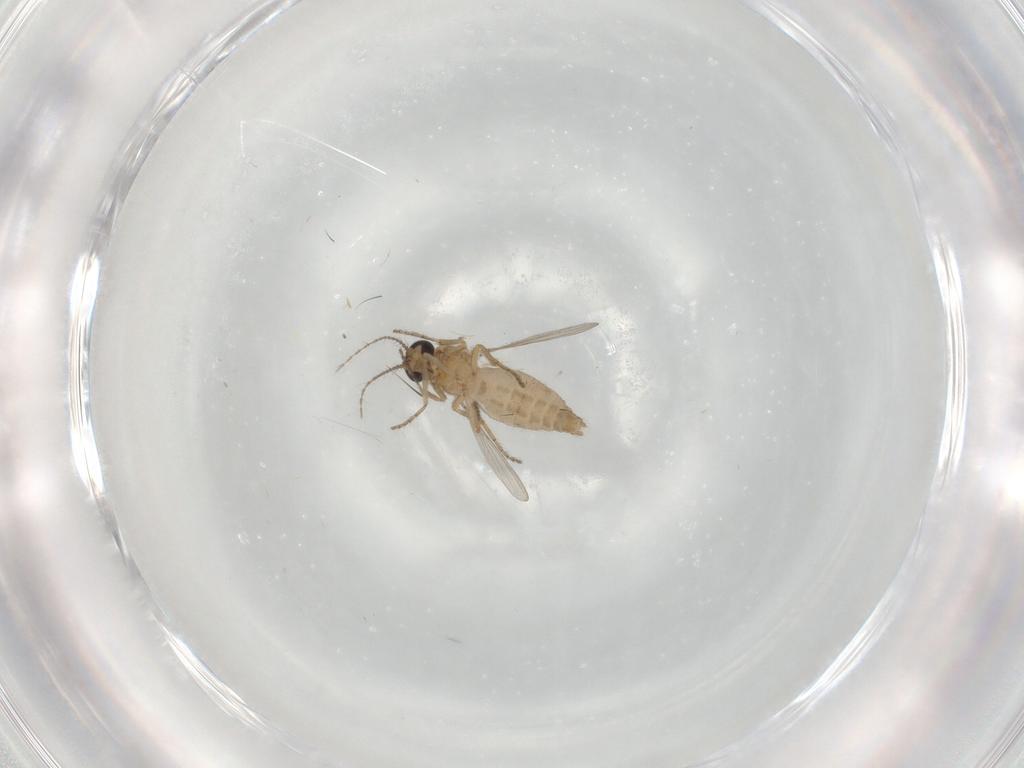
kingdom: Animalia
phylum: Arthropoda
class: Insecta
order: Diptera
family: Ceratopogonidae
